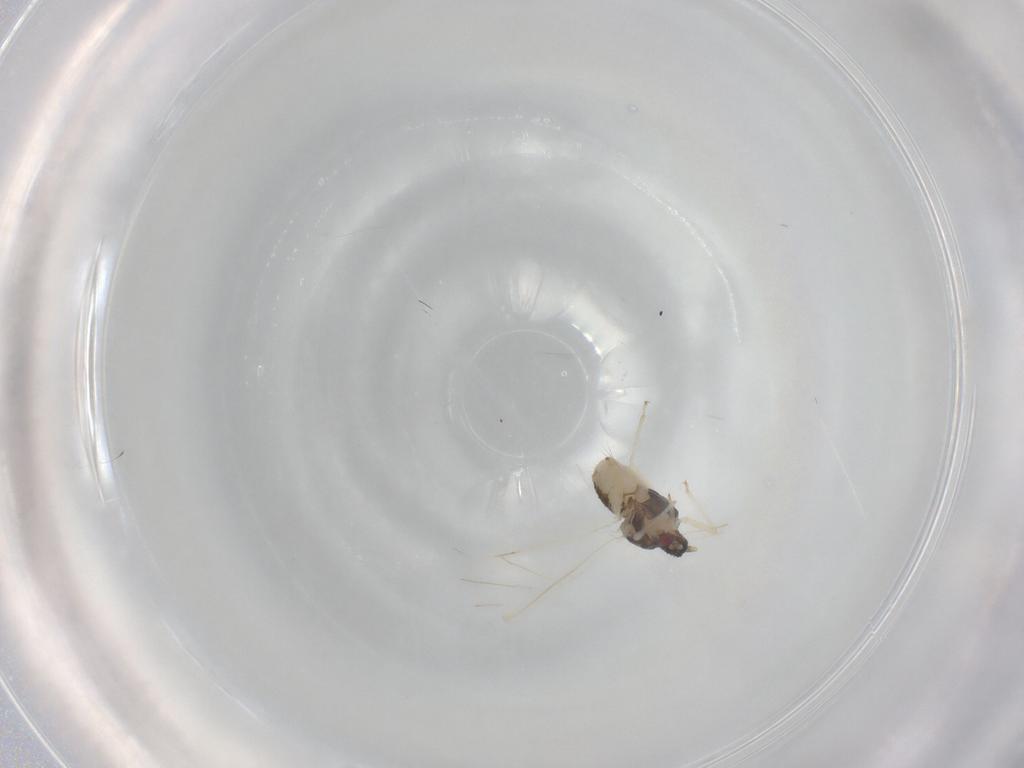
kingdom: Animalia
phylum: Arthropoda
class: Insecta
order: Hemiptera
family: Aphididae
